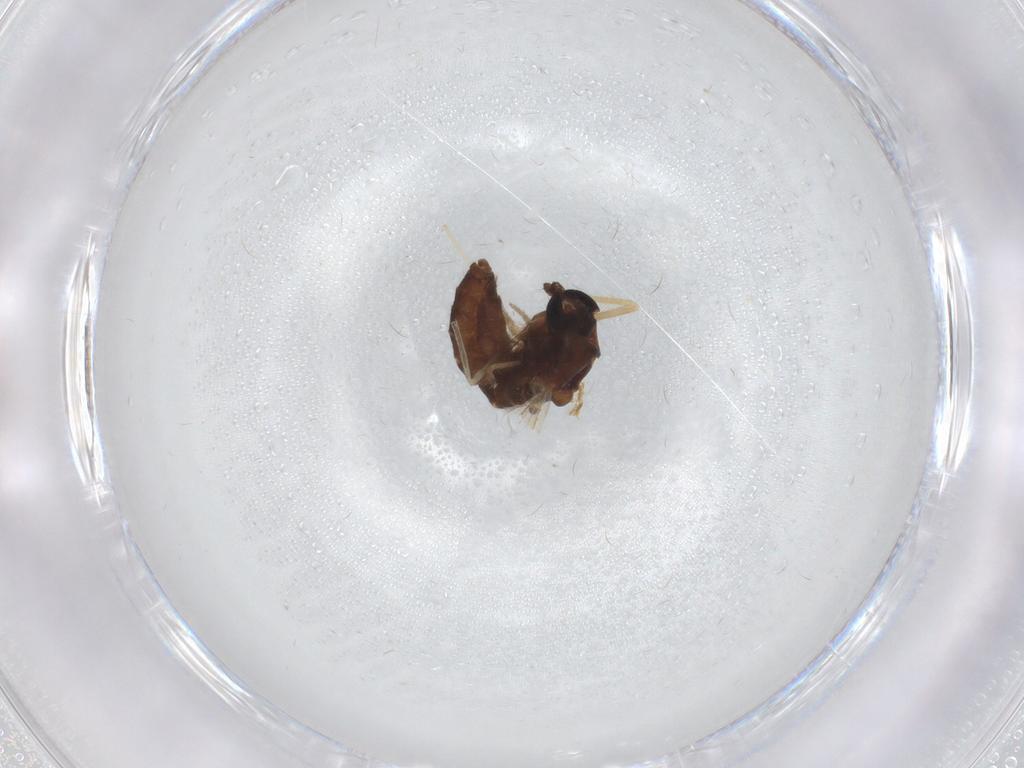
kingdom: Animalia
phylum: Arthropoda
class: Insecta
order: Diptera
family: Chironomidae
